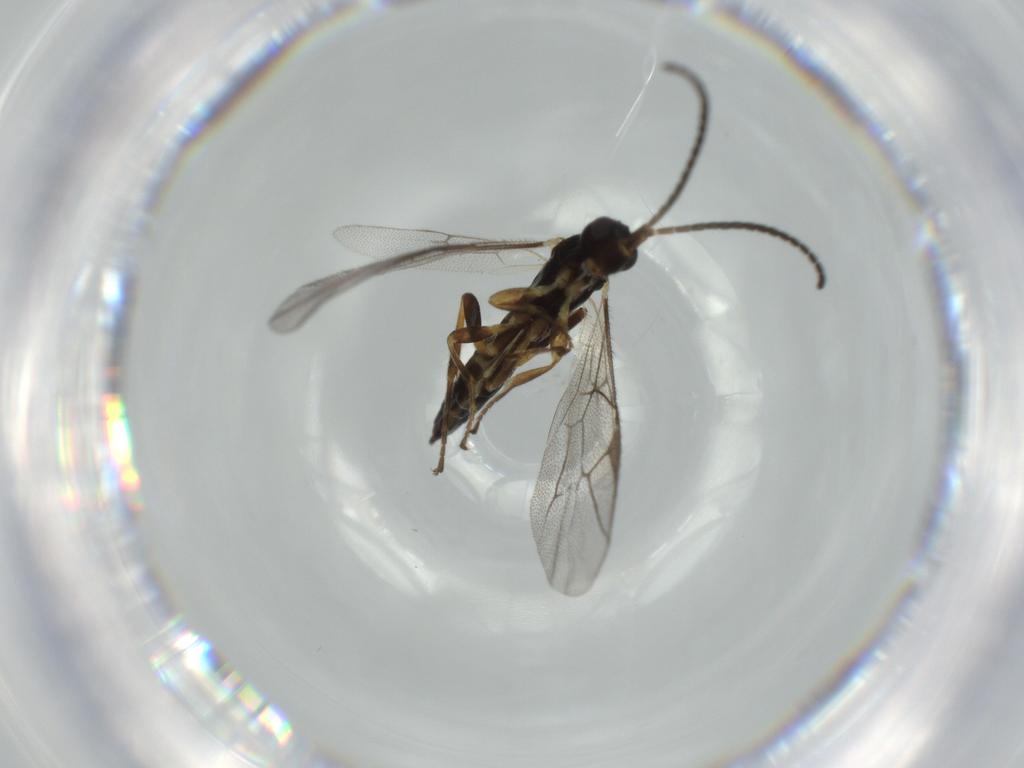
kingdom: Animalia
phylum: Arthropoda
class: Insecta
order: Hymenoptera
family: Ichneumonidae
